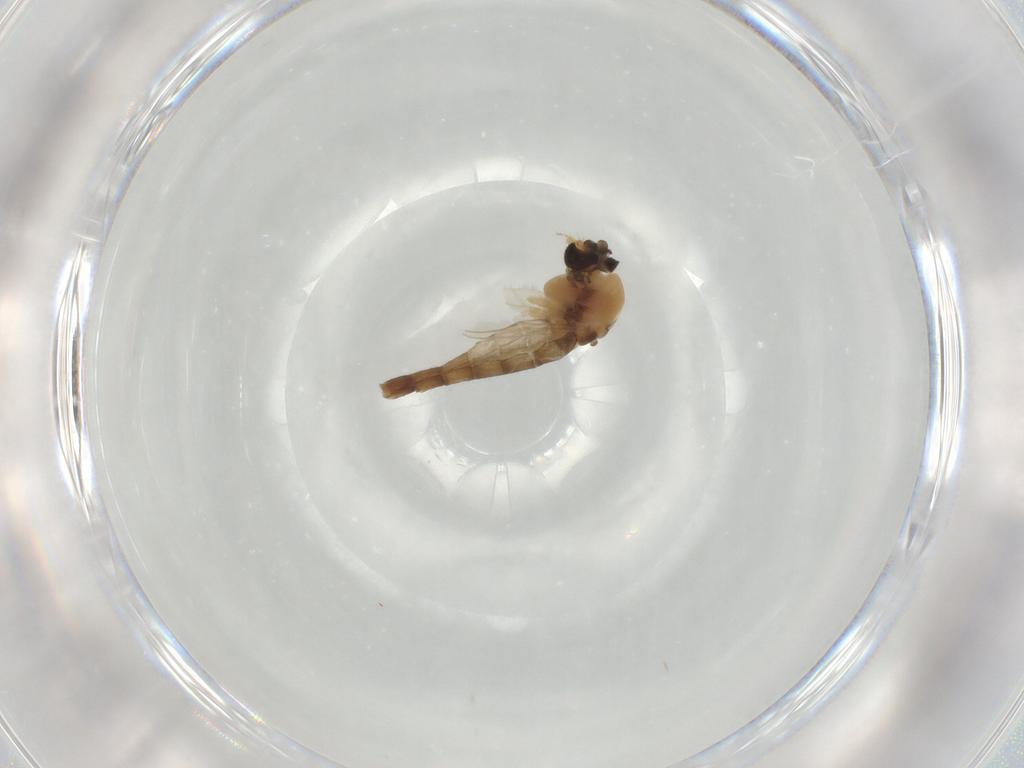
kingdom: Animalia
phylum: Arthropoda
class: Insecta
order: Diptera
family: Chironomidae
